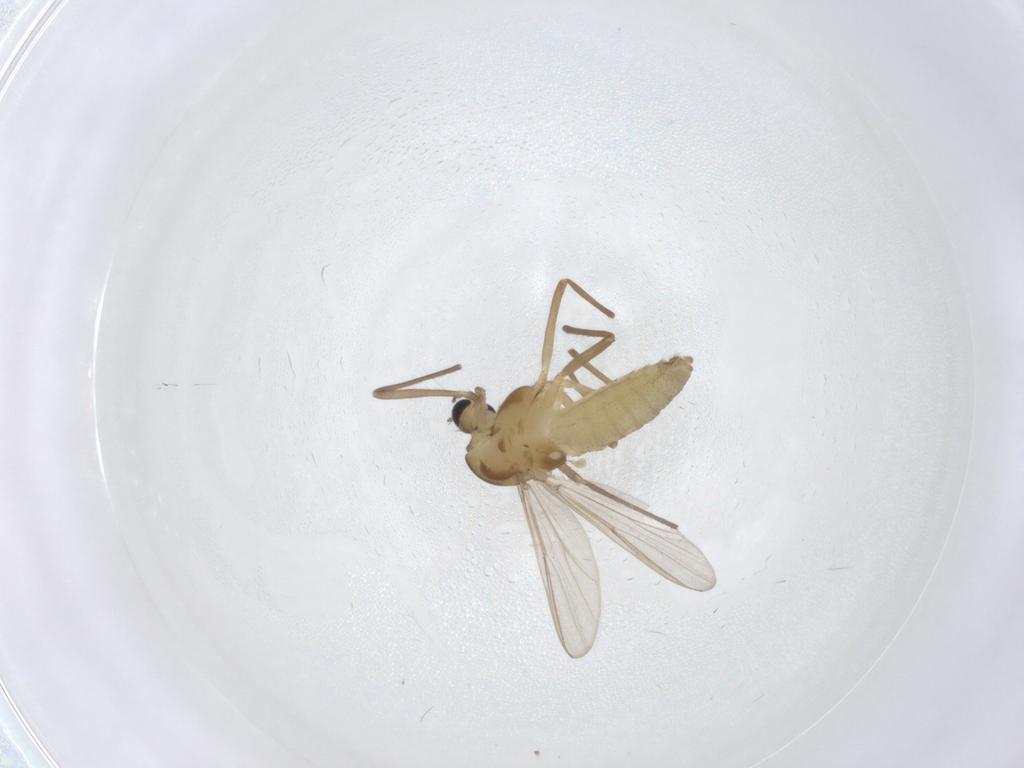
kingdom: Animalia
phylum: Arthropoda
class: Insecta
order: Diptera
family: Chironomidae
